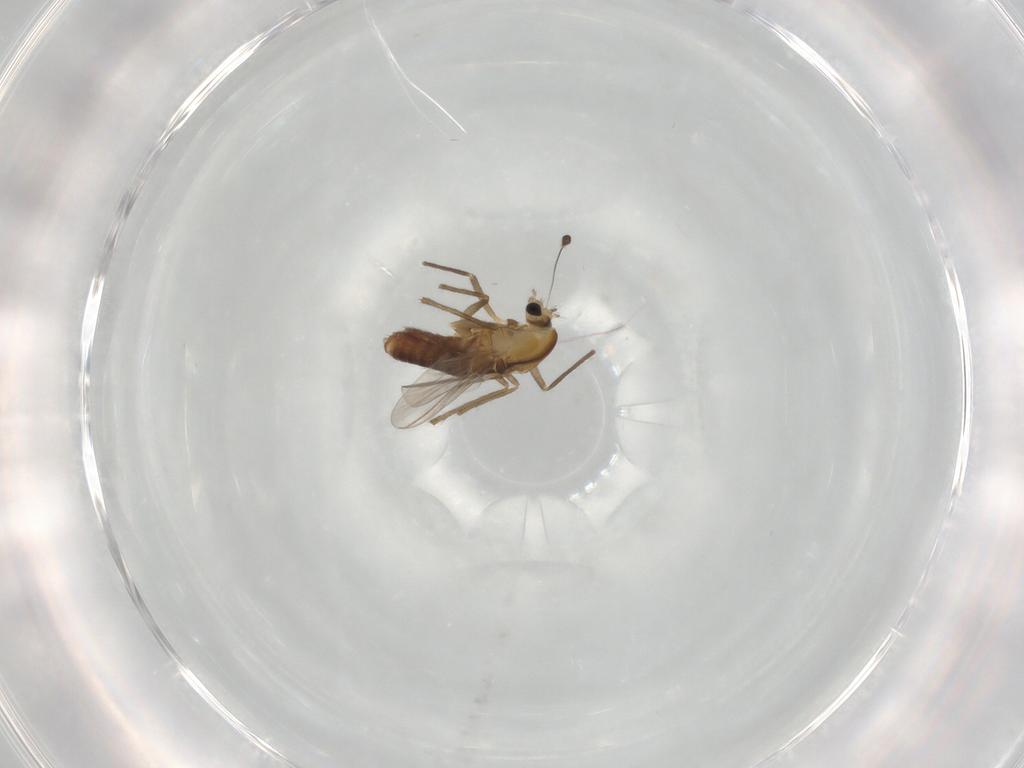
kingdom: Animalia
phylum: Arthropoda
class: Insecta
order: Diptera
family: Chironomidae
